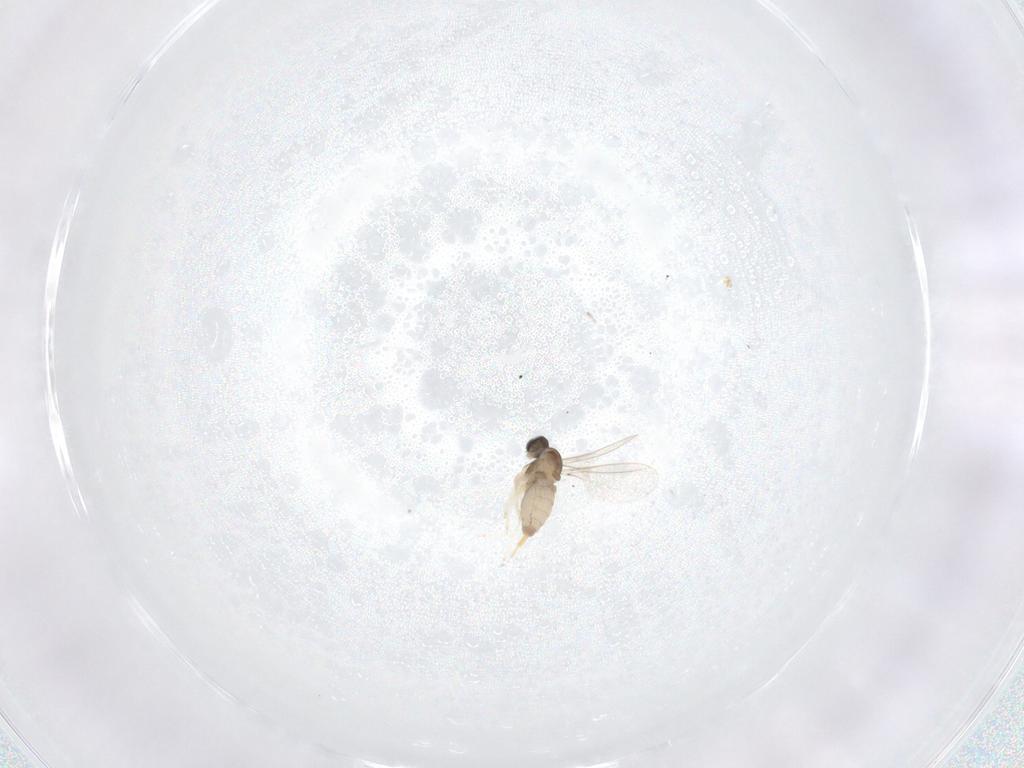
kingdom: Animalia
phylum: Arthropoda
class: Insecta
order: Diptera
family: Cecidomyiidae
